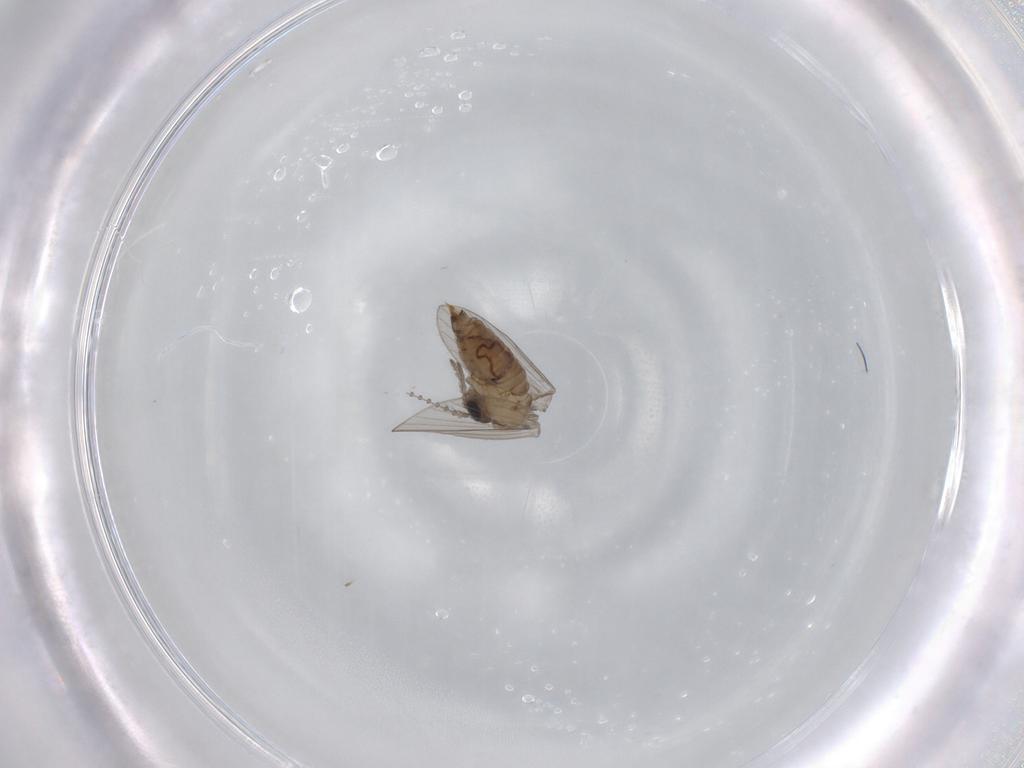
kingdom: Animalia
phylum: Arthropoda
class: Insecta
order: Diptera
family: Psychodidae
